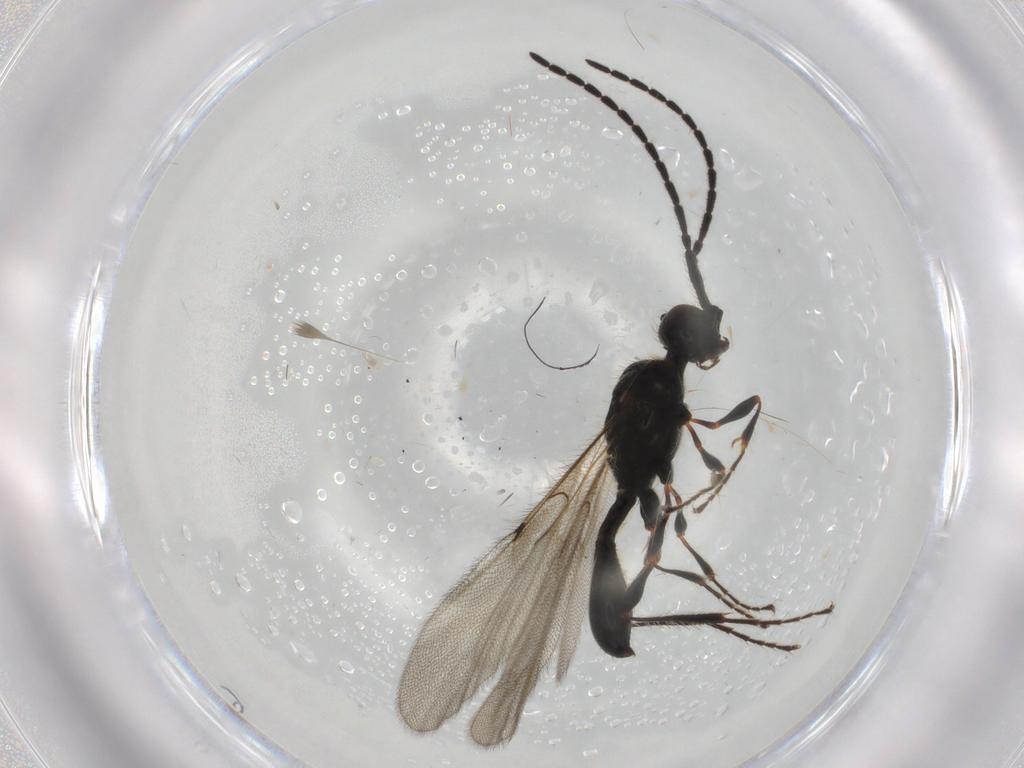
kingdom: Animalia
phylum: Arthropoda
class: Insecta
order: Hymenoptera
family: Diapriidae
